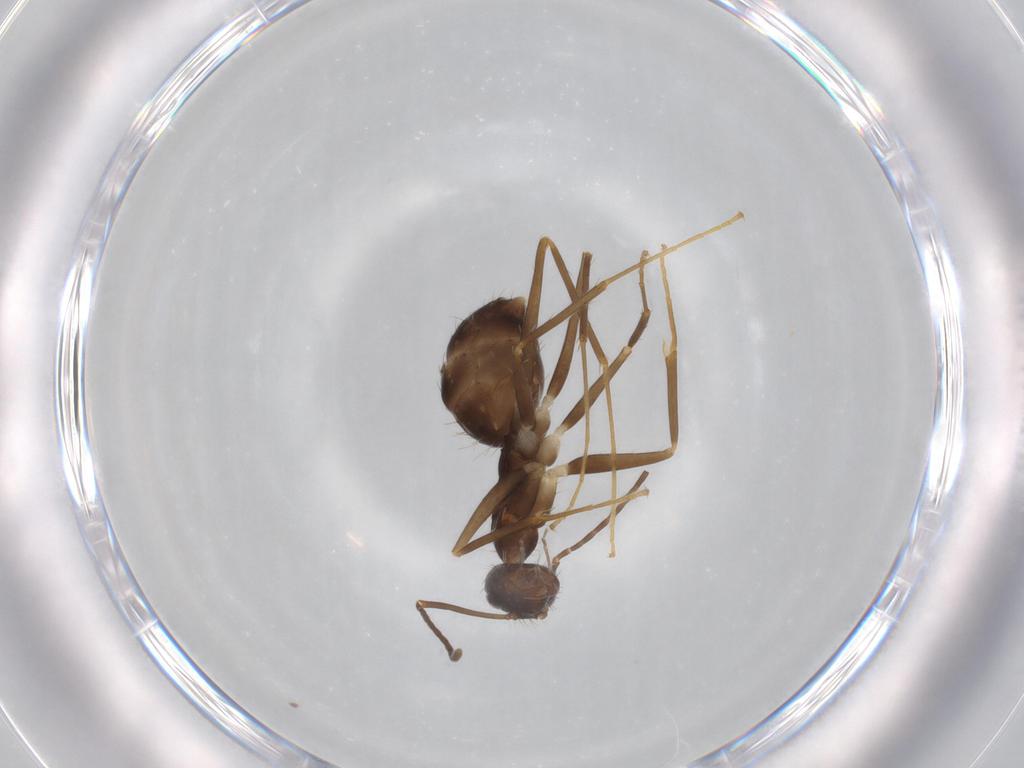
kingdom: Animalia
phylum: Arthropoda
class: Insecta
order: Hymenoptera
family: Formicidae
